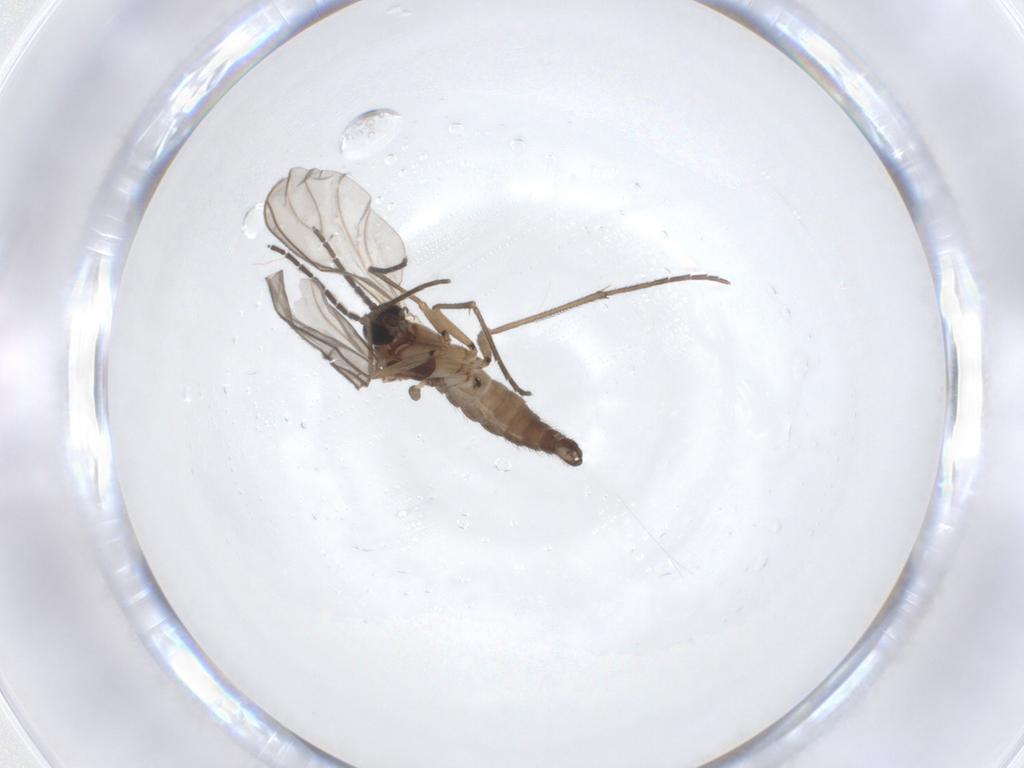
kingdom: Animalia
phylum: Arthropoda
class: Insecta
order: Diptera
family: Sciaridae
